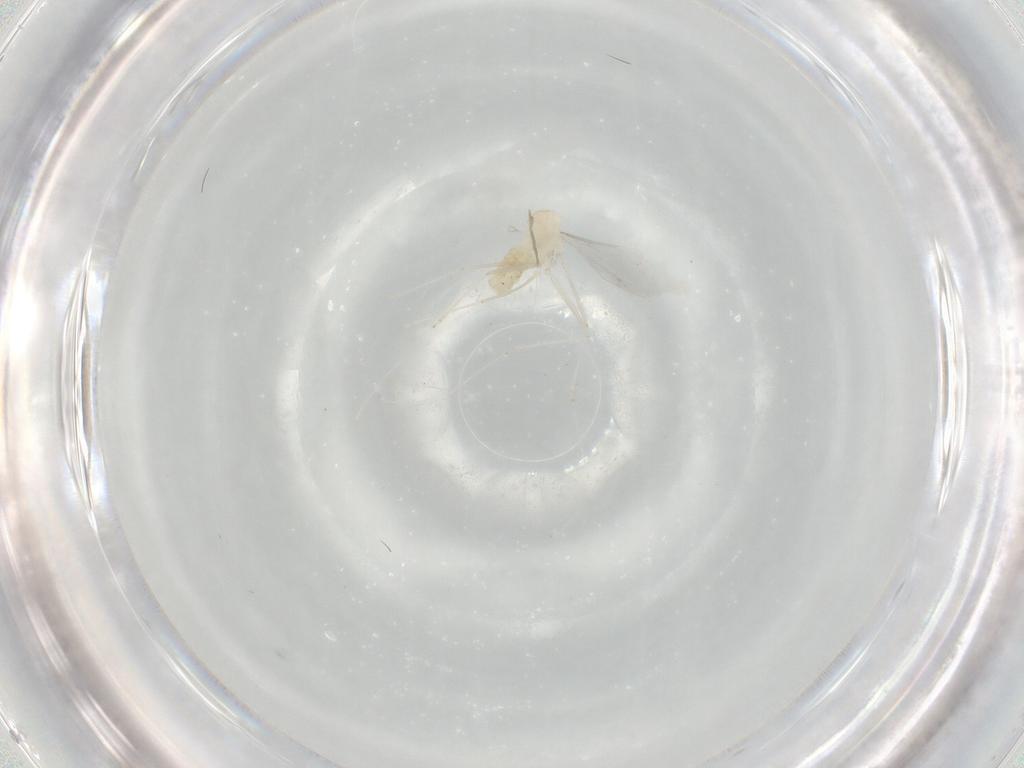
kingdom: Animalia
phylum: Arthropoda
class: Insecta
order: Diptera
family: Cecidomyiidae
